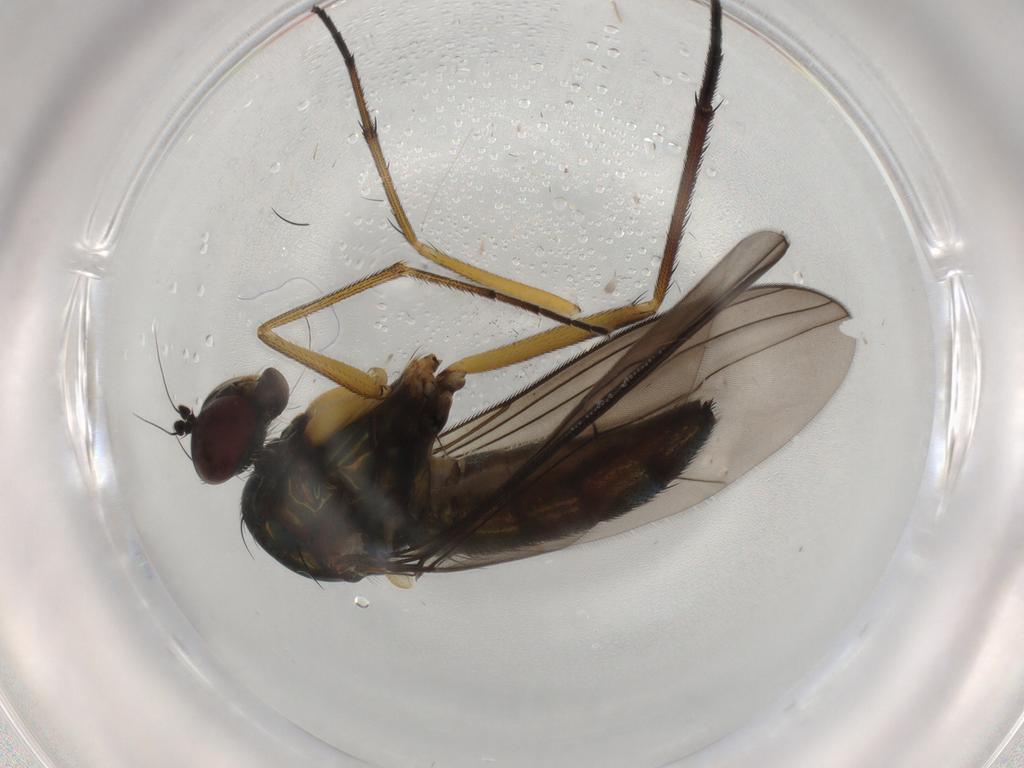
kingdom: Animalia
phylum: Arthropoda
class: Insecta
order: Diptera
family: Dolichopodidae
